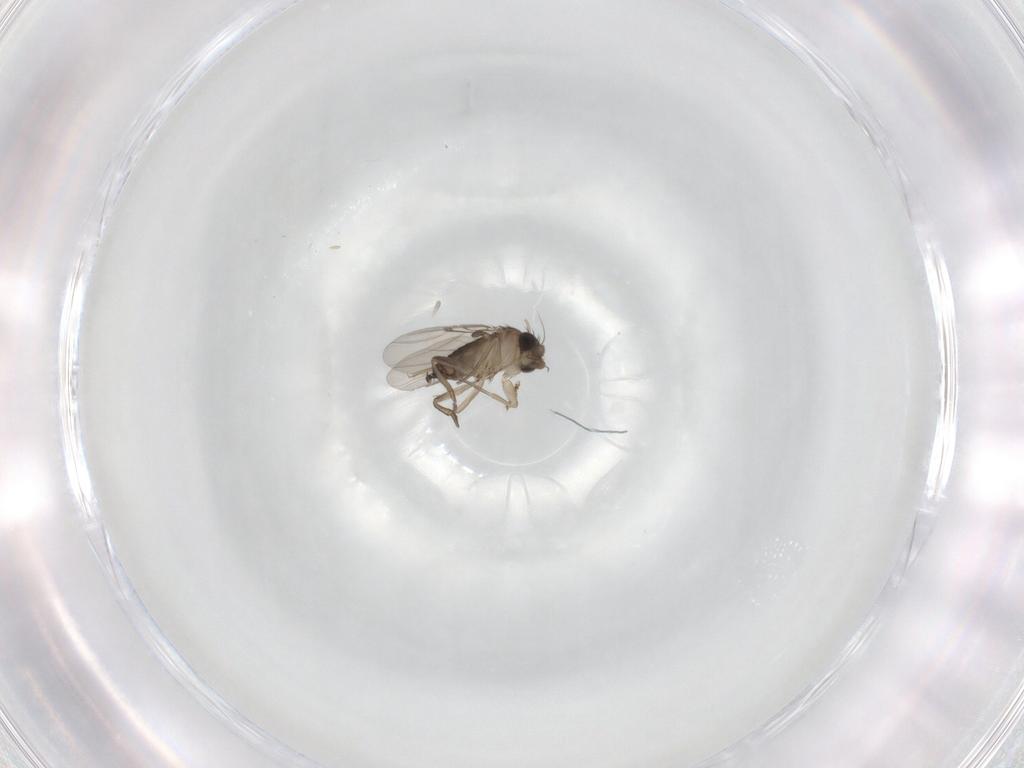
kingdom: Animalia
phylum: Arthropoda
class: Insecta
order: Diptera
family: Phoridae
